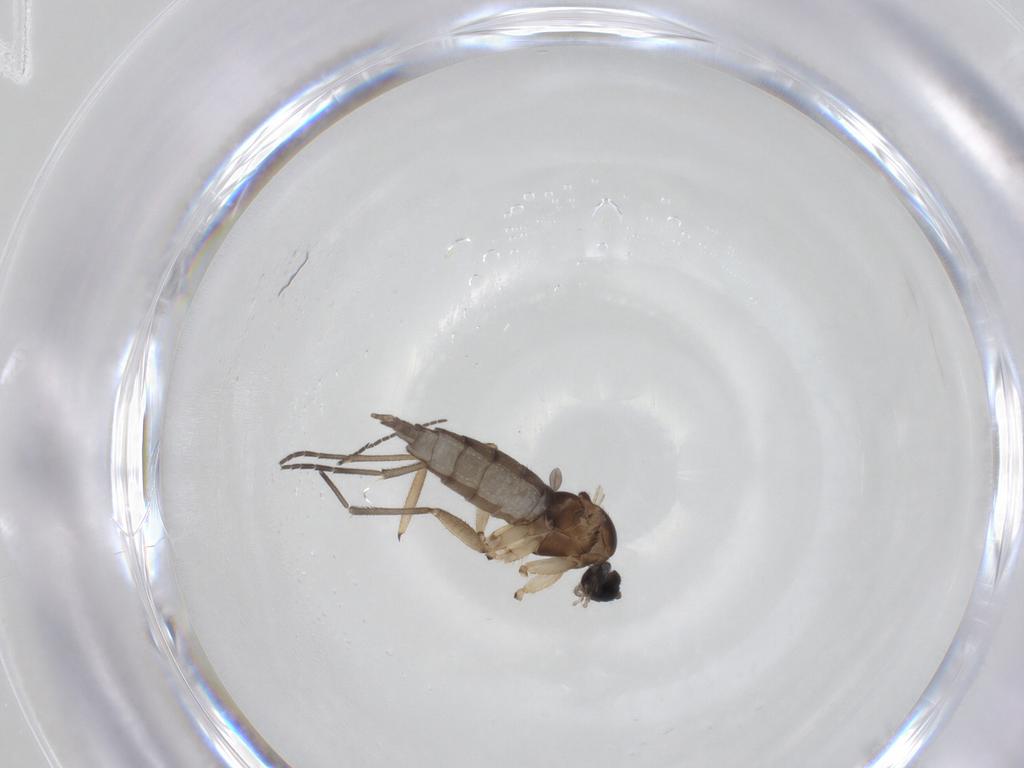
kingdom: Animalia
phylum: Arthropoda
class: Insecta
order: Diptera
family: Sciaridae
